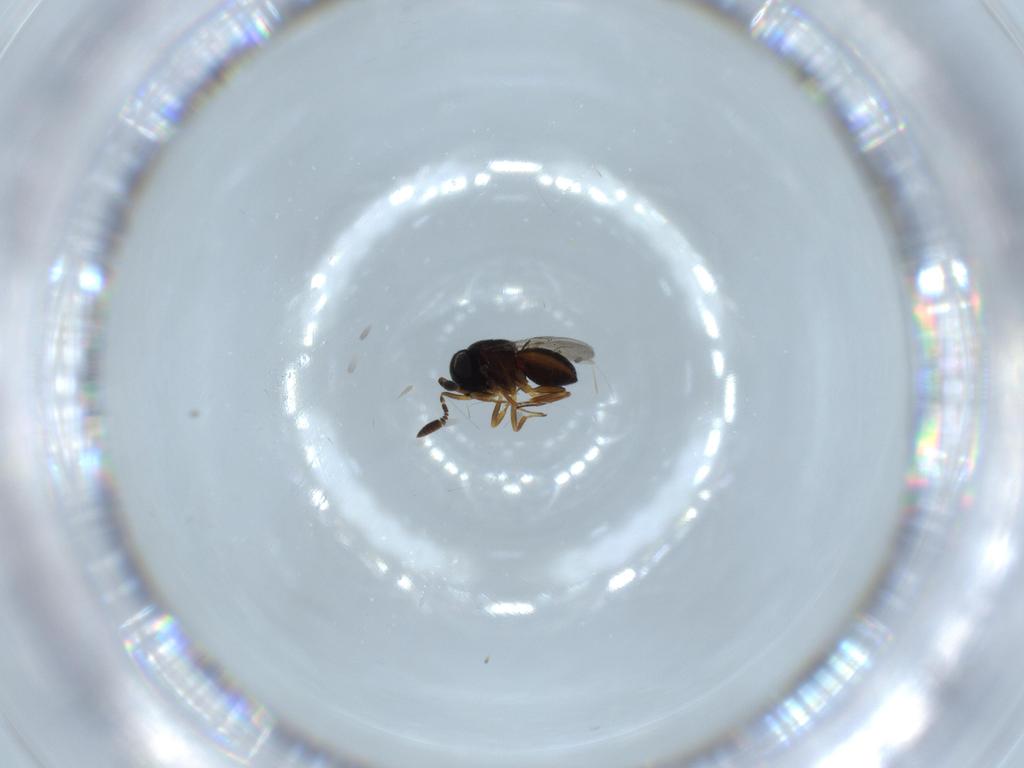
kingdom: Animalia
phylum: Arthropoda
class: Insecta
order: Coleoptera
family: Curculionidae
